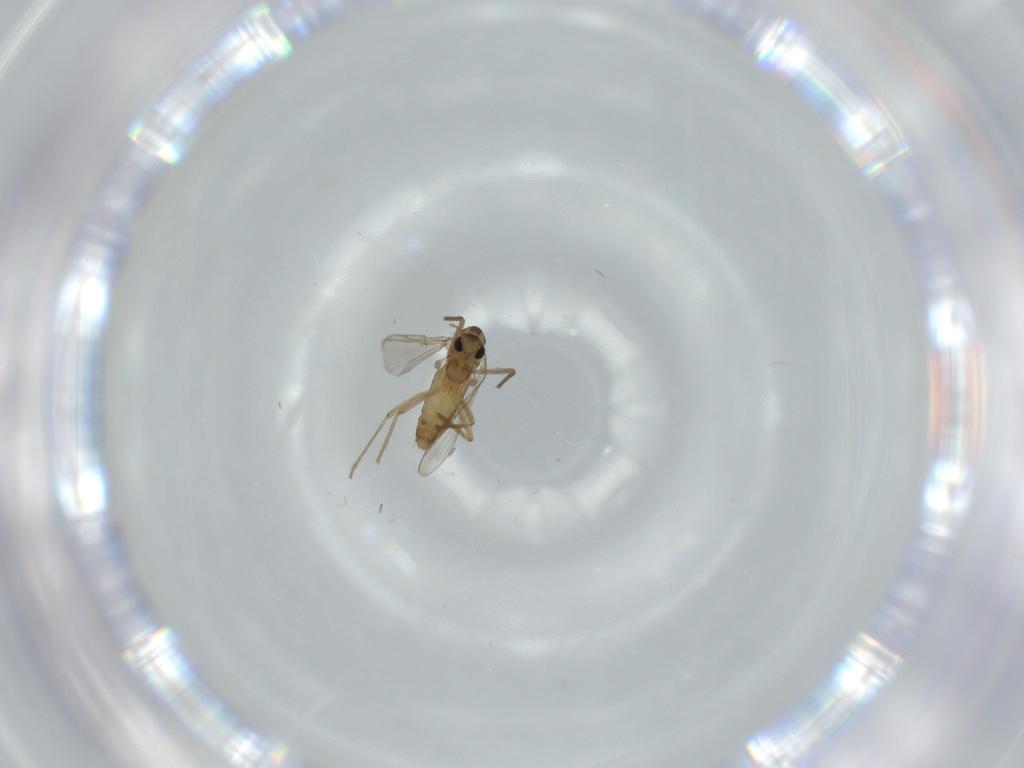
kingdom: Animalia
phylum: Arthropoda
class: Insecta
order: Diptera
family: Chironomidae
